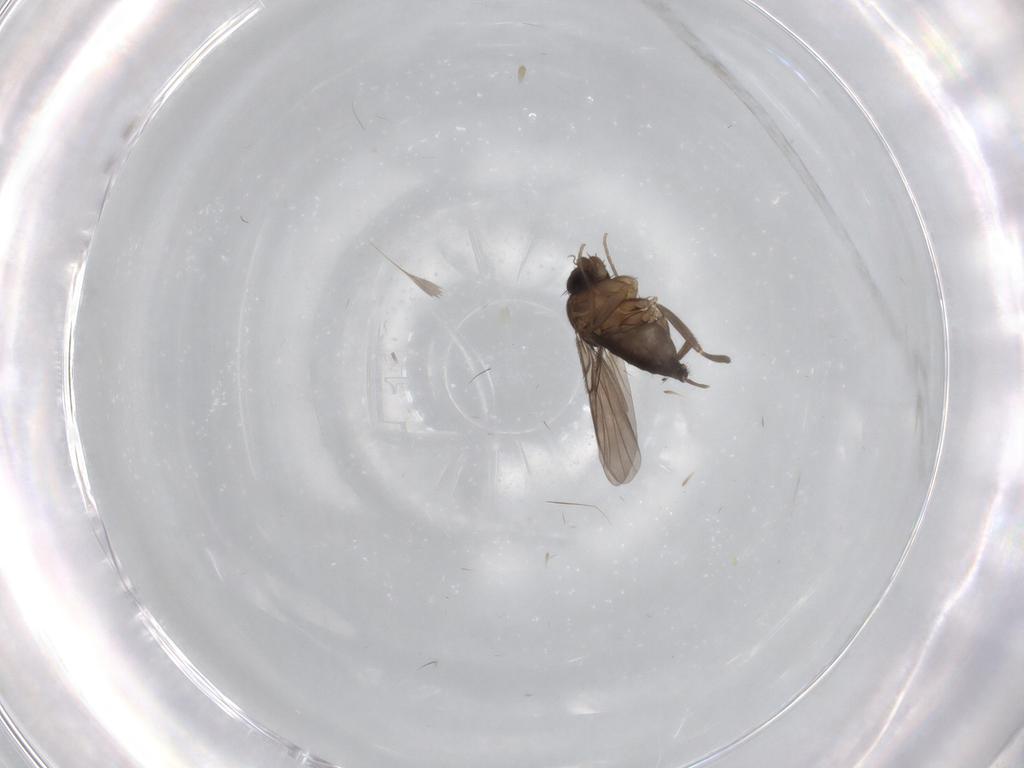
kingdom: Animalia
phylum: Arthropoda
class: Insecta
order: Diptera
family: Phoridae
